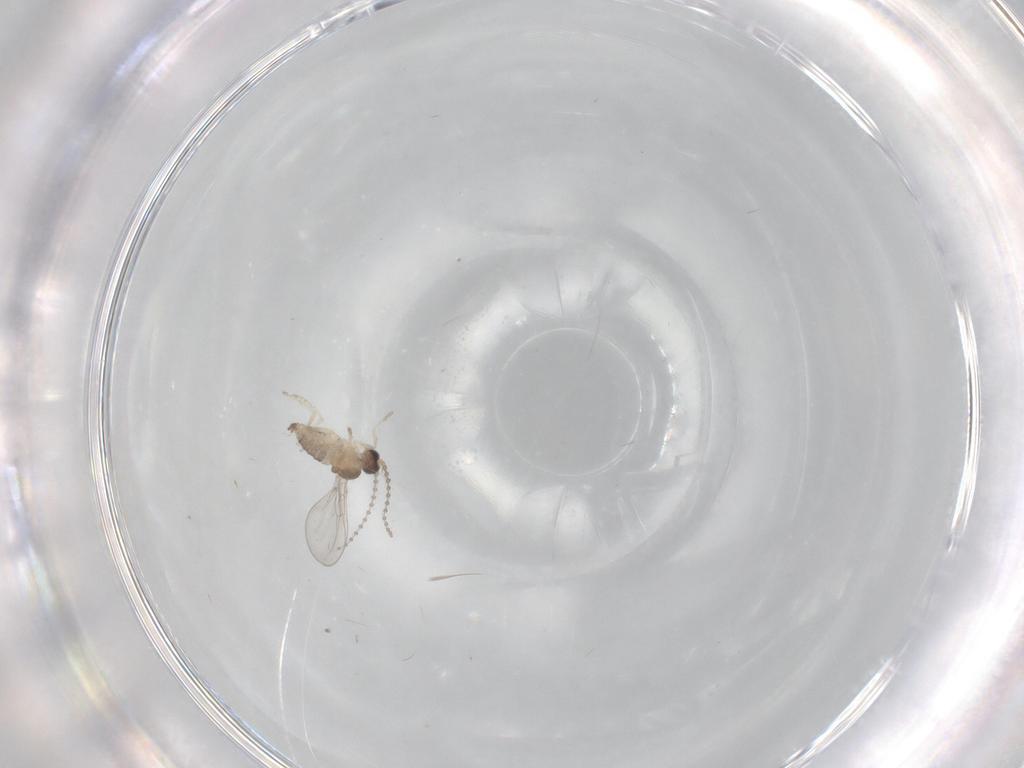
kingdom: Animalia
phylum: Arthropoda
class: Insecta
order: Diptera
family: Cecidomyiidae
